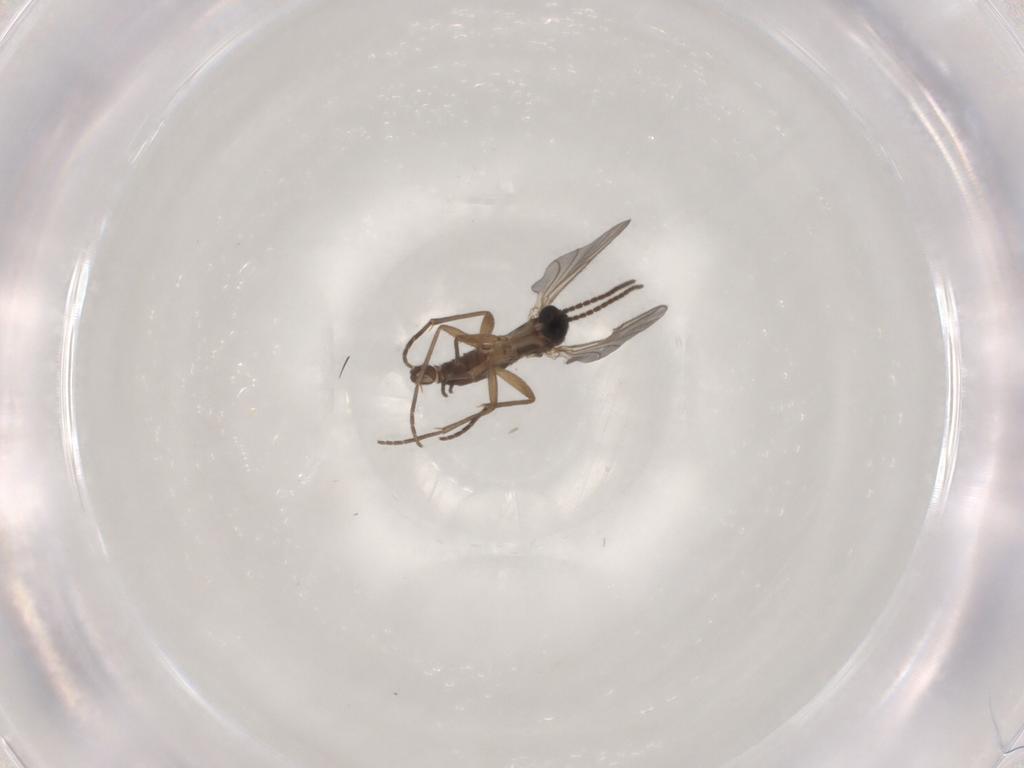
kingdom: Animalia
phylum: Arthropoda
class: Insecta
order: Diptera
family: Sciaridae
